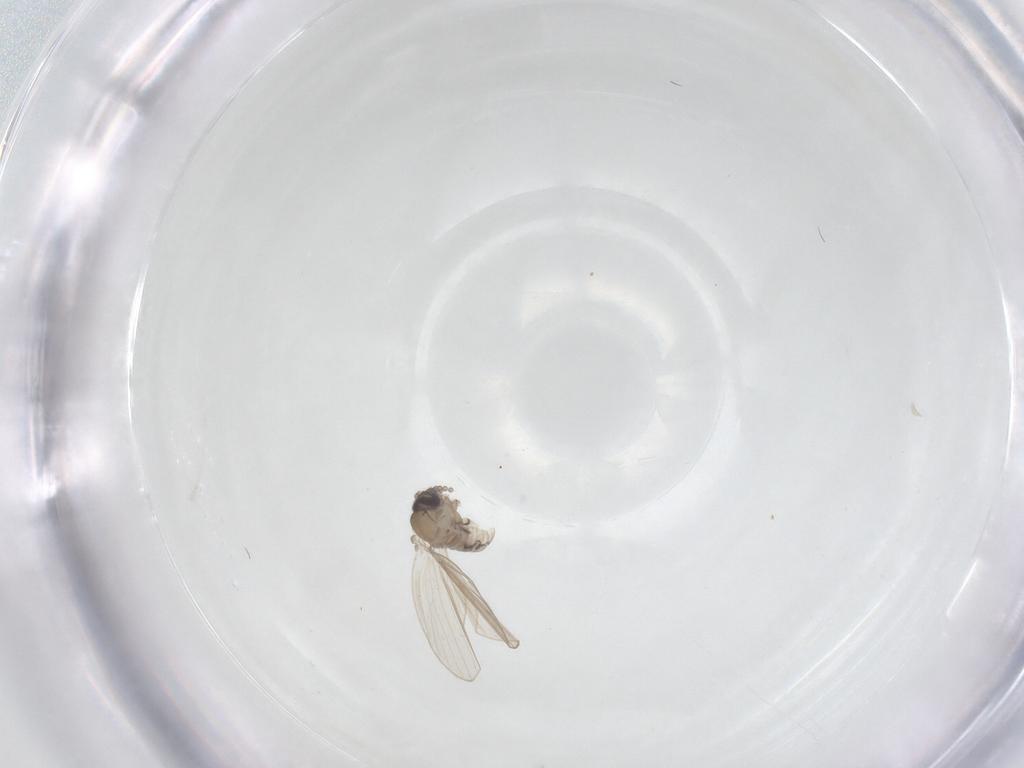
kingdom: Animalia
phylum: Arthropoda
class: Insecta
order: Diptera
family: Psychodidae
